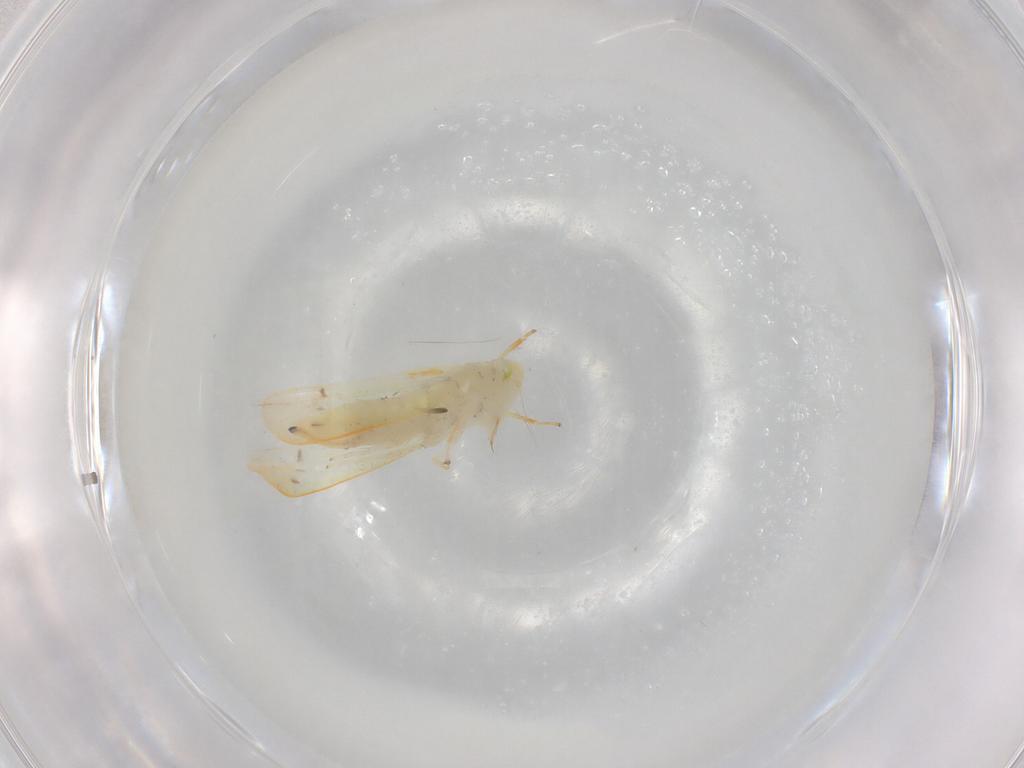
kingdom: Animalia
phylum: Arthropoda
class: Insecta
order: Hemiptera
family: Cicadellidae
